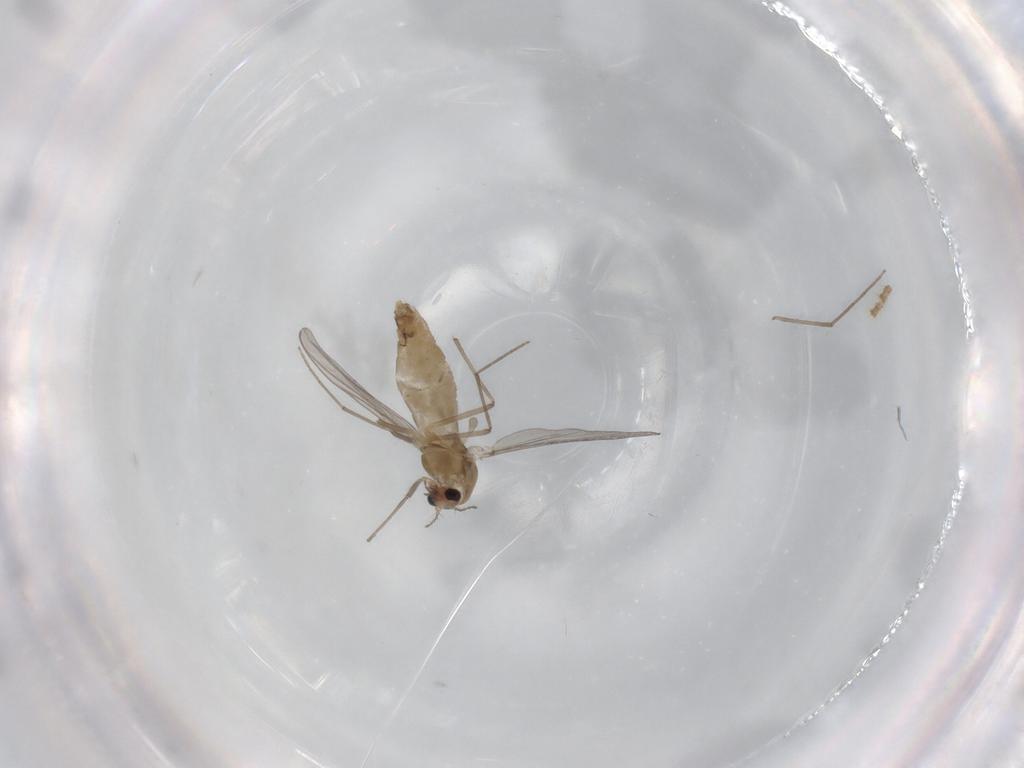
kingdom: Animalia
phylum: Arthropoda
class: Insecta
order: Diptera
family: Chironomidae
